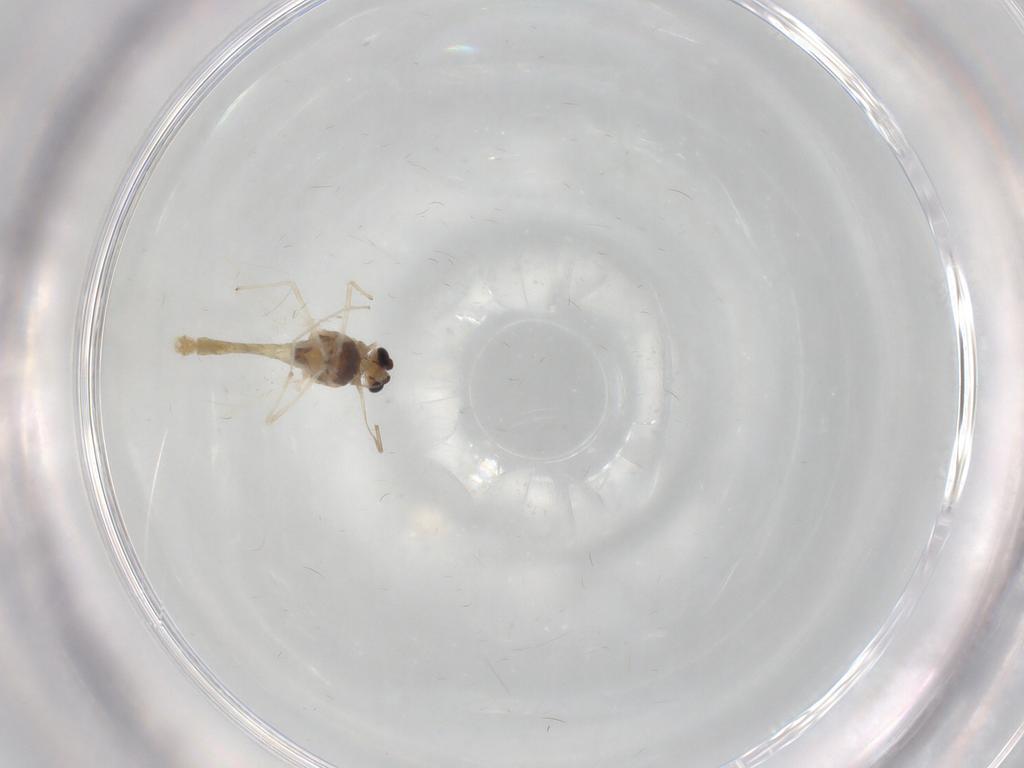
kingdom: Animalia
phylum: Arthropoda
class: Insecta
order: Diptera
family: Chironomidae
